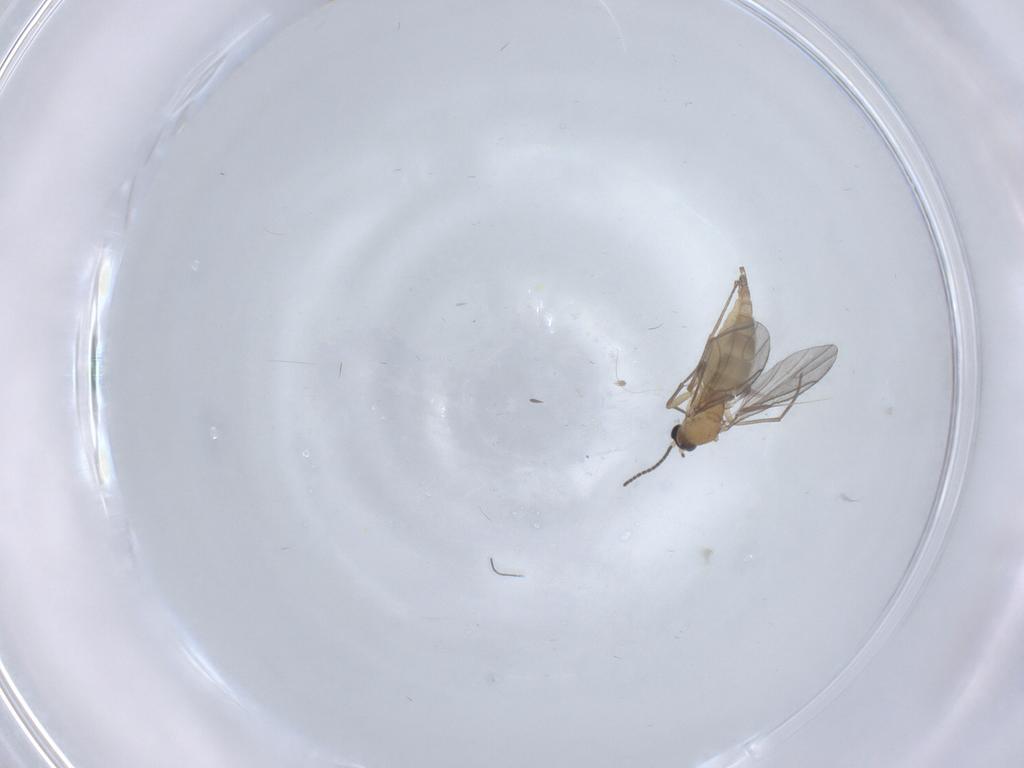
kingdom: Animalia
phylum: Arthropoda
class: Insecta
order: Diptera
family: Sciaridae
